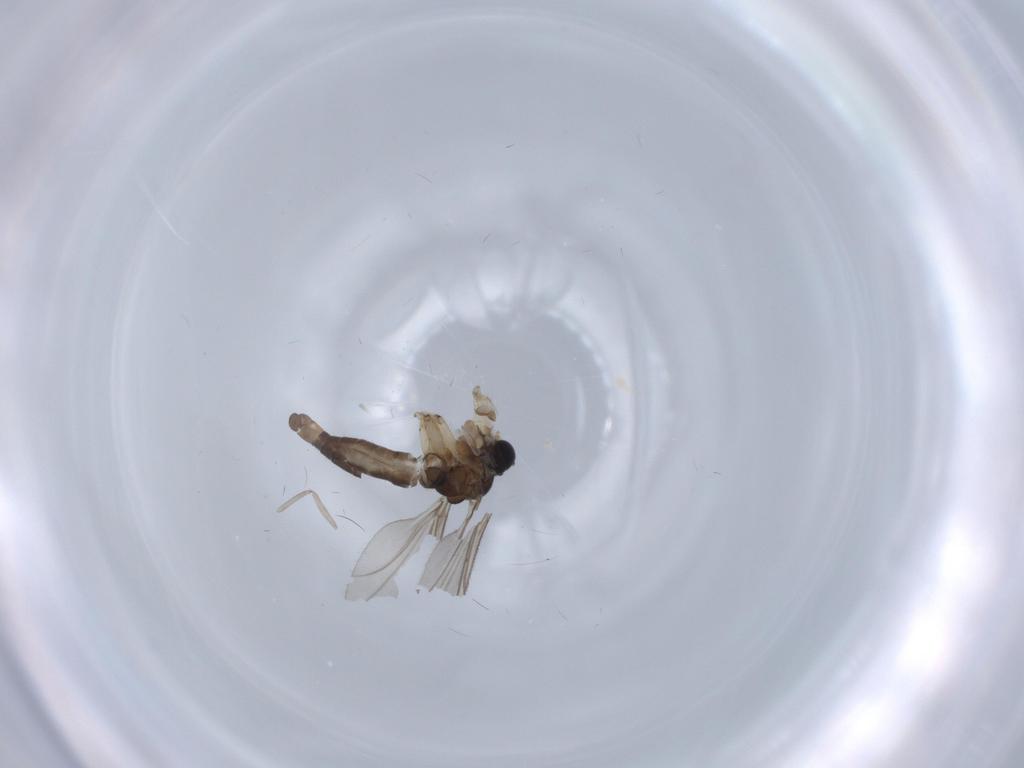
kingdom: Animalia
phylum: Arthropoda
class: Insecta
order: Diptera
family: Sciaridae
